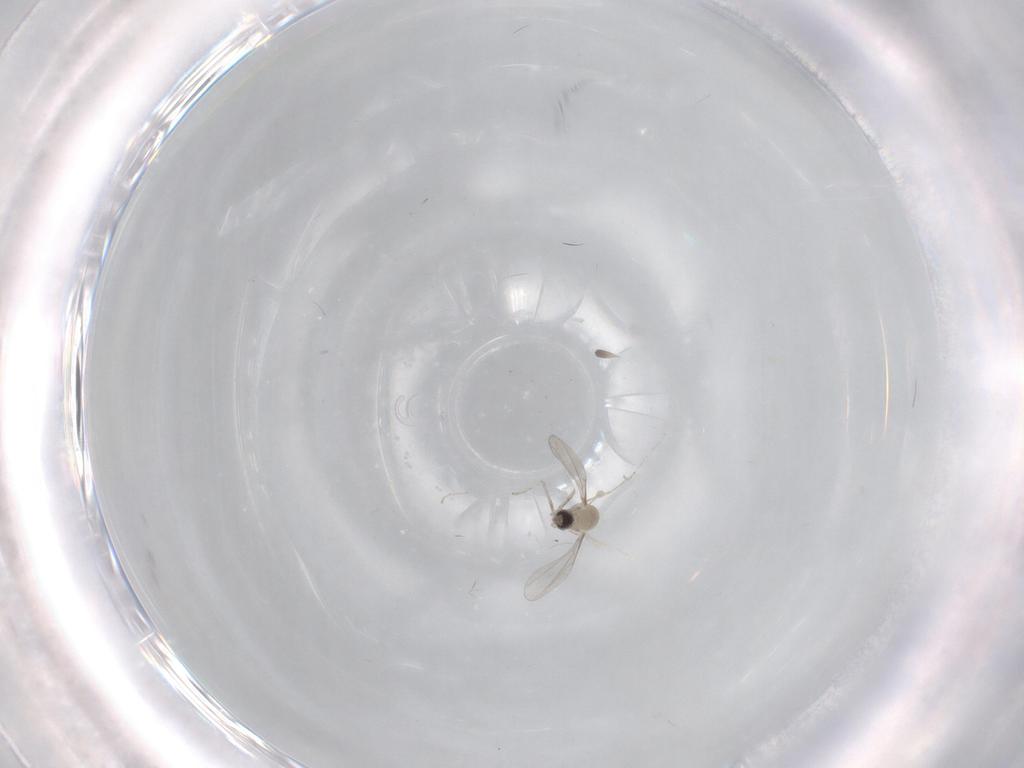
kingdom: Animalia
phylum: Arthropoda
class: Insecta
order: Diptera
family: Cecidomyiidae
